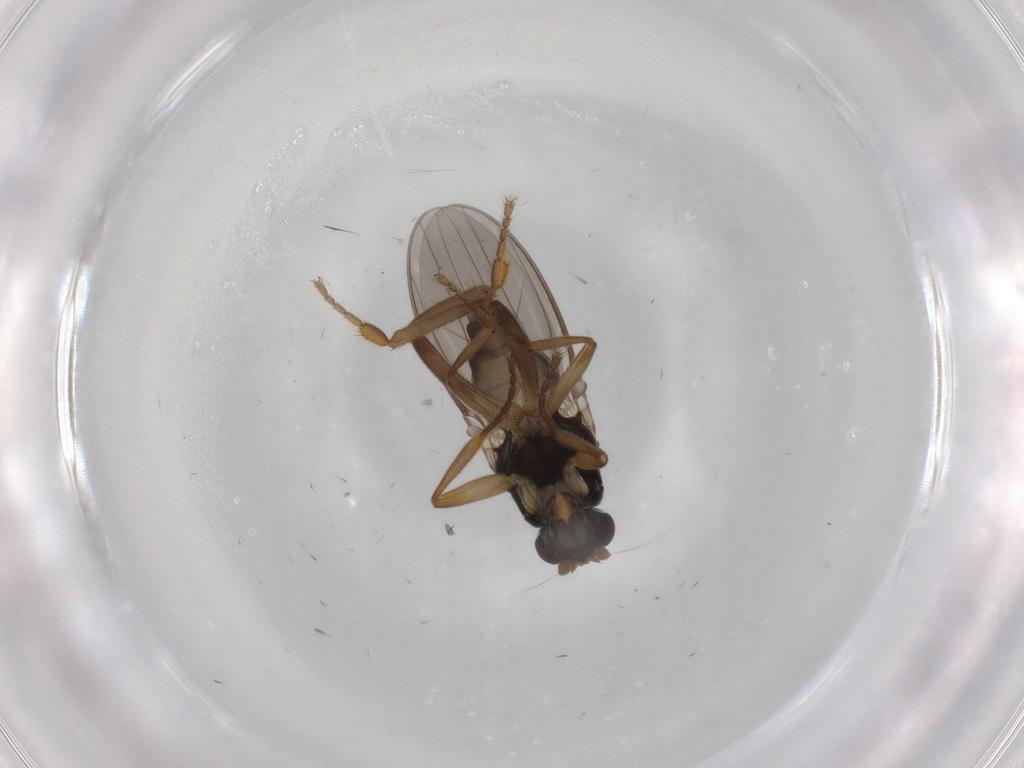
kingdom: Animalia
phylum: Arthropoda
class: Insecta
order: Diptera
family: Sphaeroceridae
